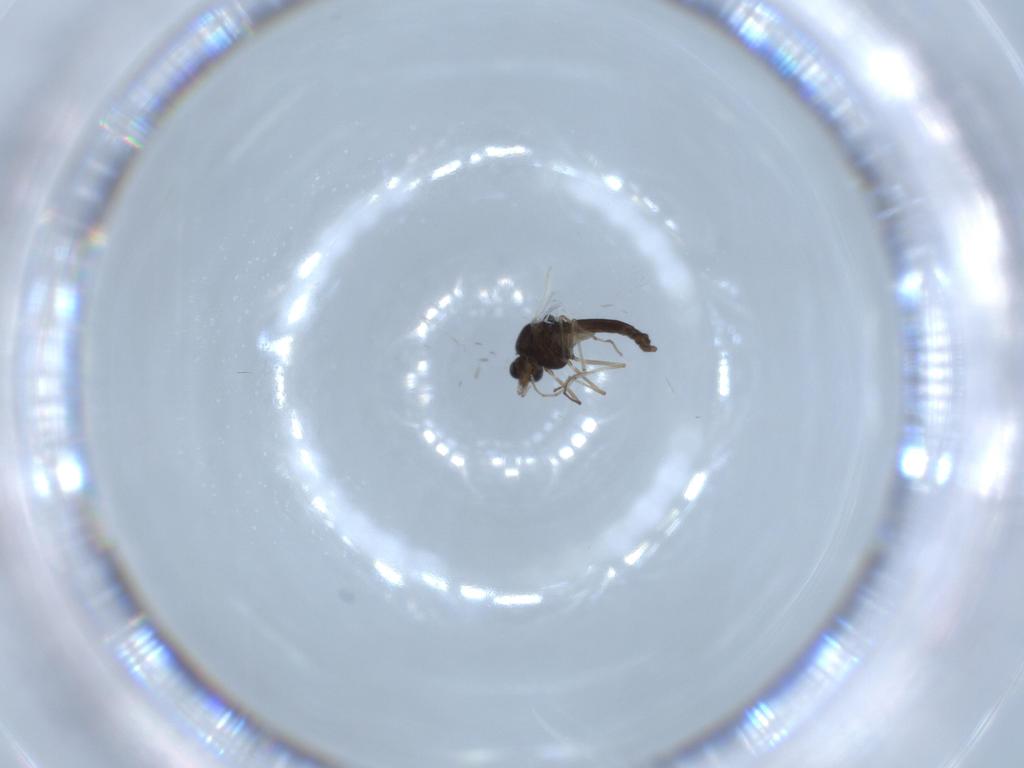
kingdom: Animalia
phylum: Arthropoda
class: Insecta
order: Diptera
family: Chironomidae
